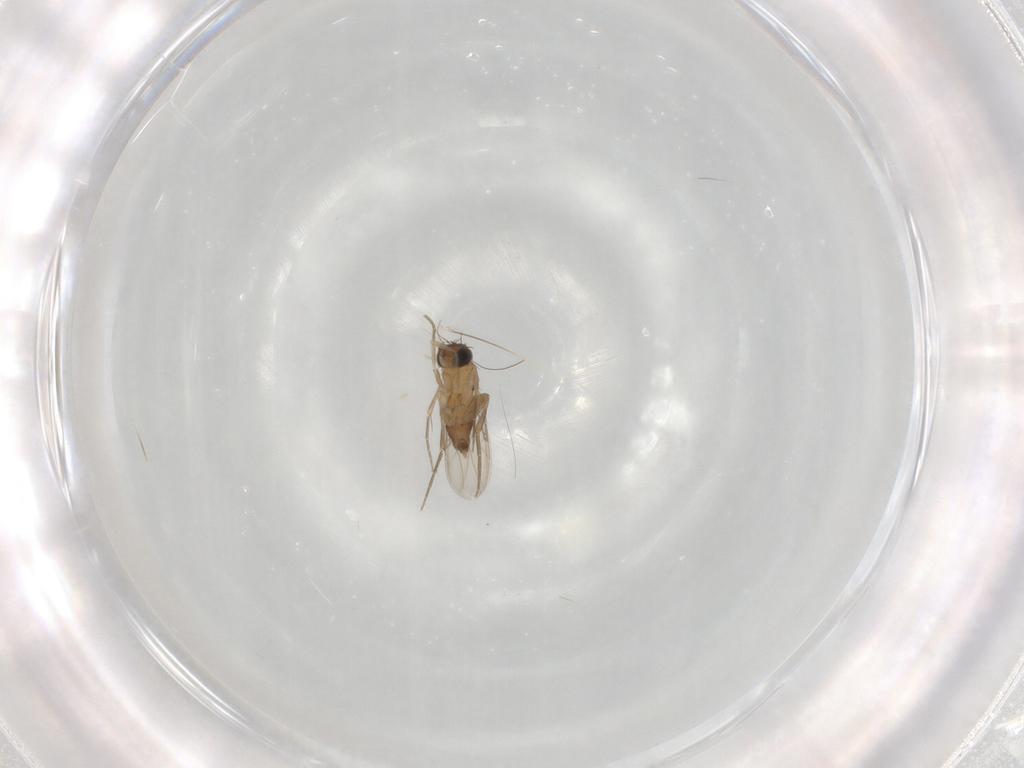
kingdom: Animalia
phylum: Arthropoda
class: Insecta
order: Diptera
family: Phoridae
